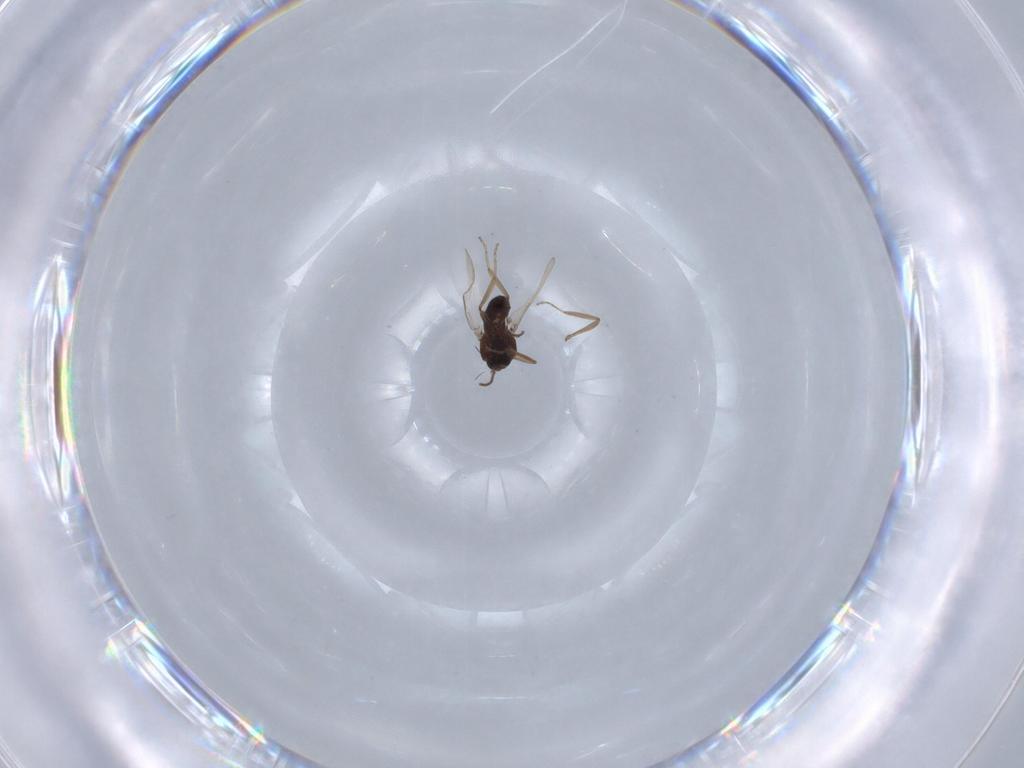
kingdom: Animalia
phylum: Arthropoda
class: Insecta
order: Diptera
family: Ceratopogonidae
